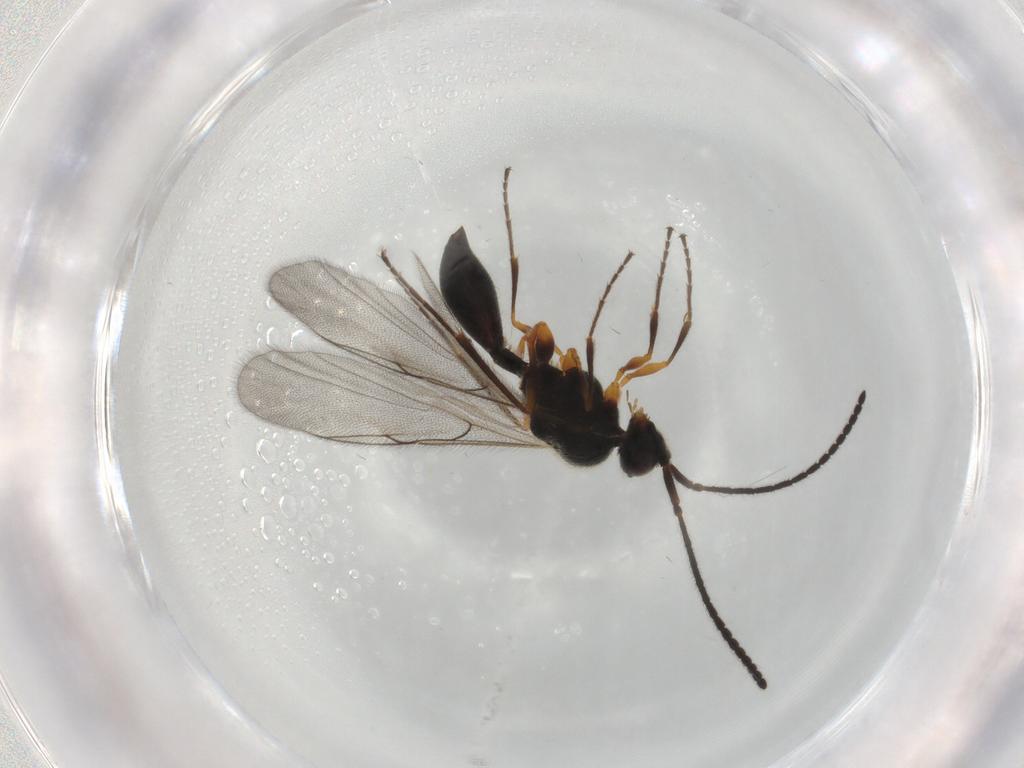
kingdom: Animalia
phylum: Arthropoda
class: Insecta
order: Hymenoptera
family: Diapriidae
